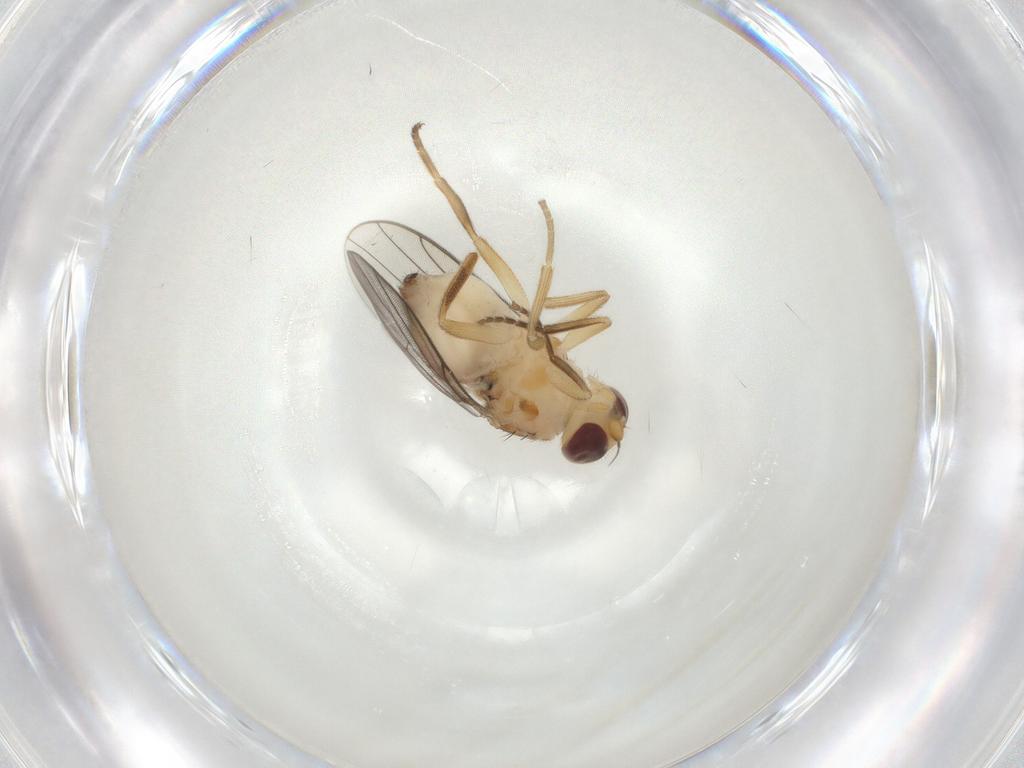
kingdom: Animalia
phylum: Arthropoda
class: Insecta
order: Diptera
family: Chloropidae
